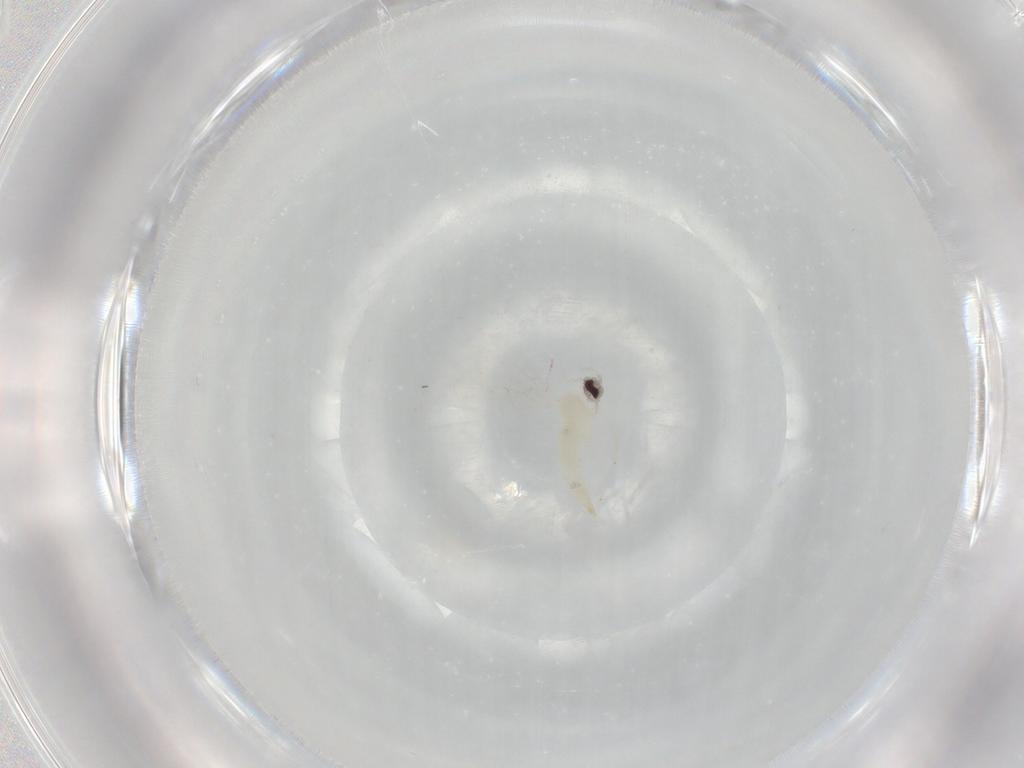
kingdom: Animalia
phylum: Arthropoda
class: Insecta
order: Diptera
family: Cecidomyiidae
